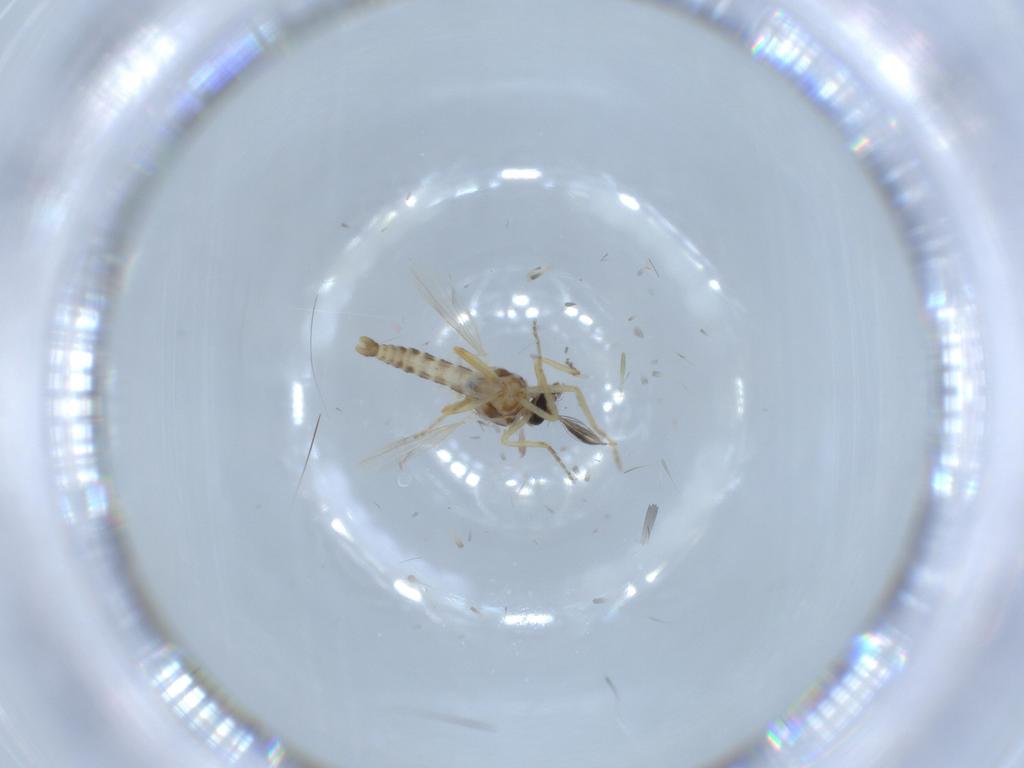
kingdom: Animalia
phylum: Arthropoda
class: Insecta
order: Diptera
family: Ceratopogonidae
